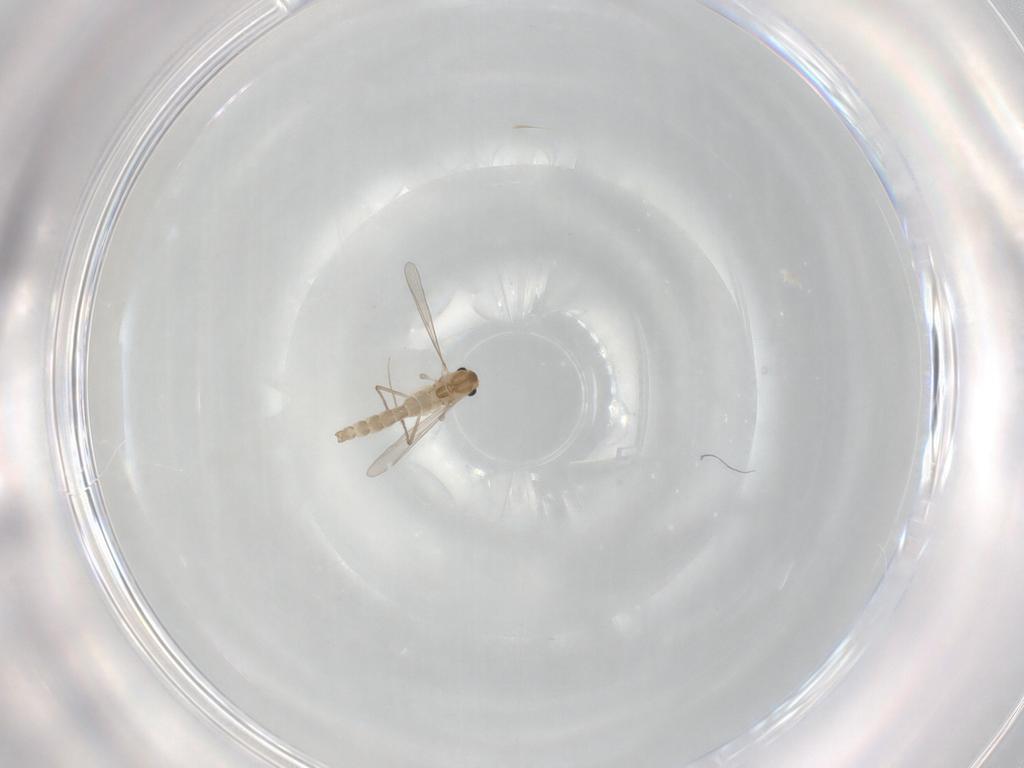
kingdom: Animalia
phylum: Arthropoda
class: Insecta
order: Diptera
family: Chironomidae
